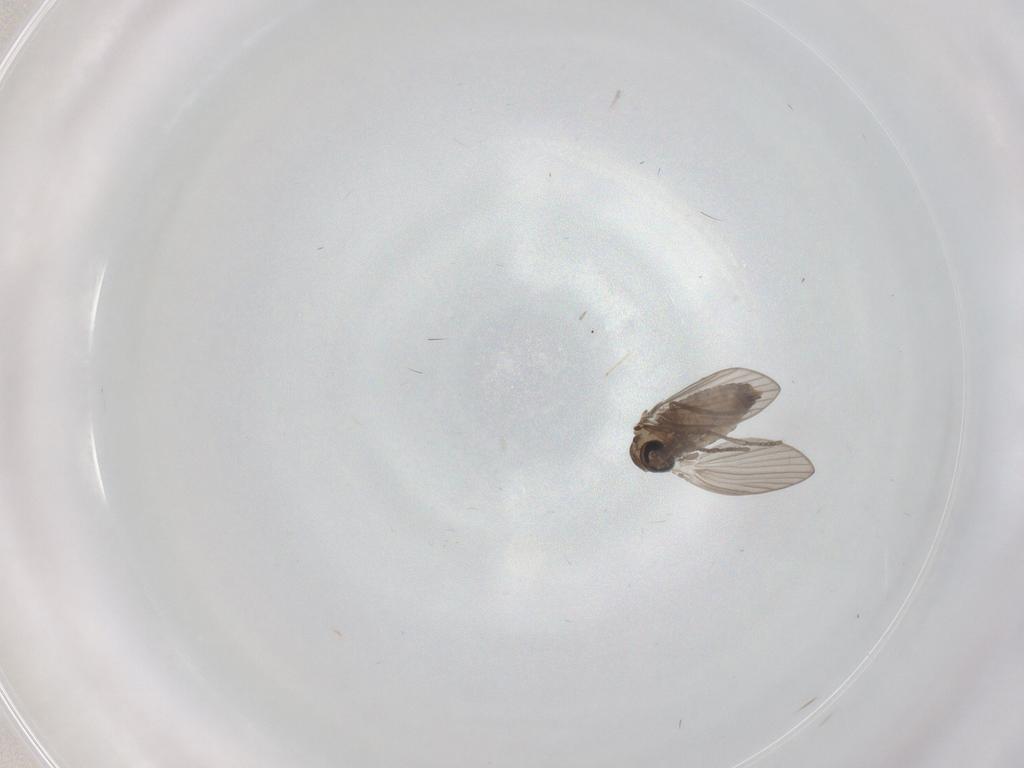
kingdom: Animalia
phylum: Arthropoda
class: Insecta
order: Diptera
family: Psychodidae
